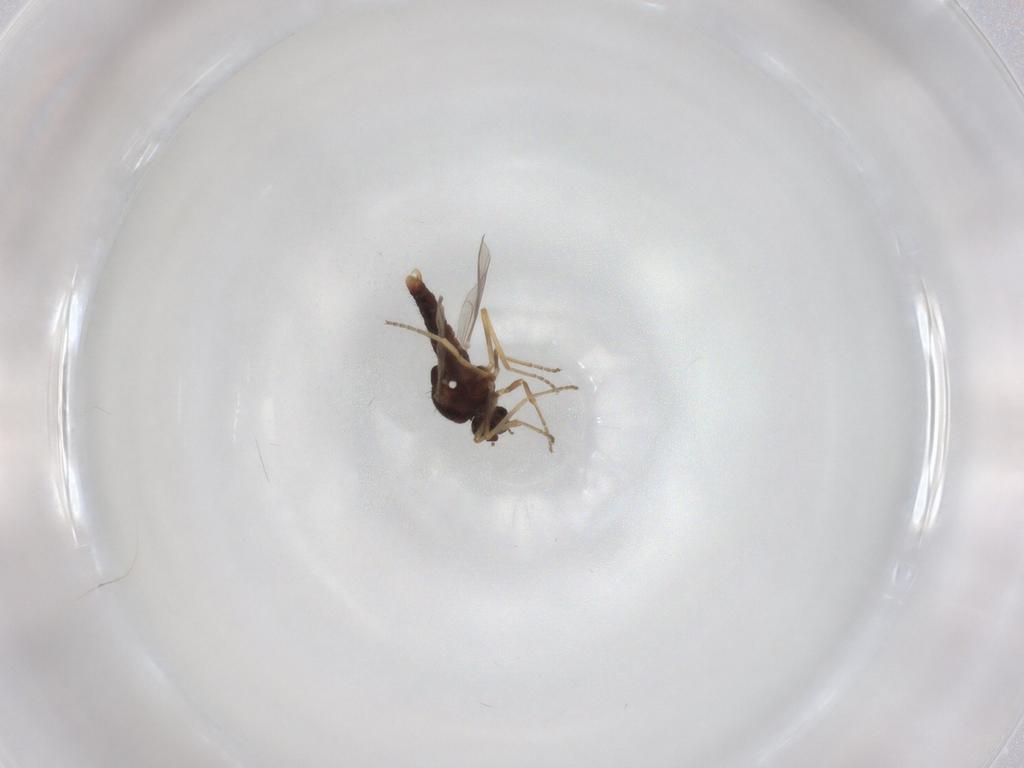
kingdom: Animalia
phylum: Arthropoda
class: Insecta
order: Diptera
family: Ceratopogonidae
